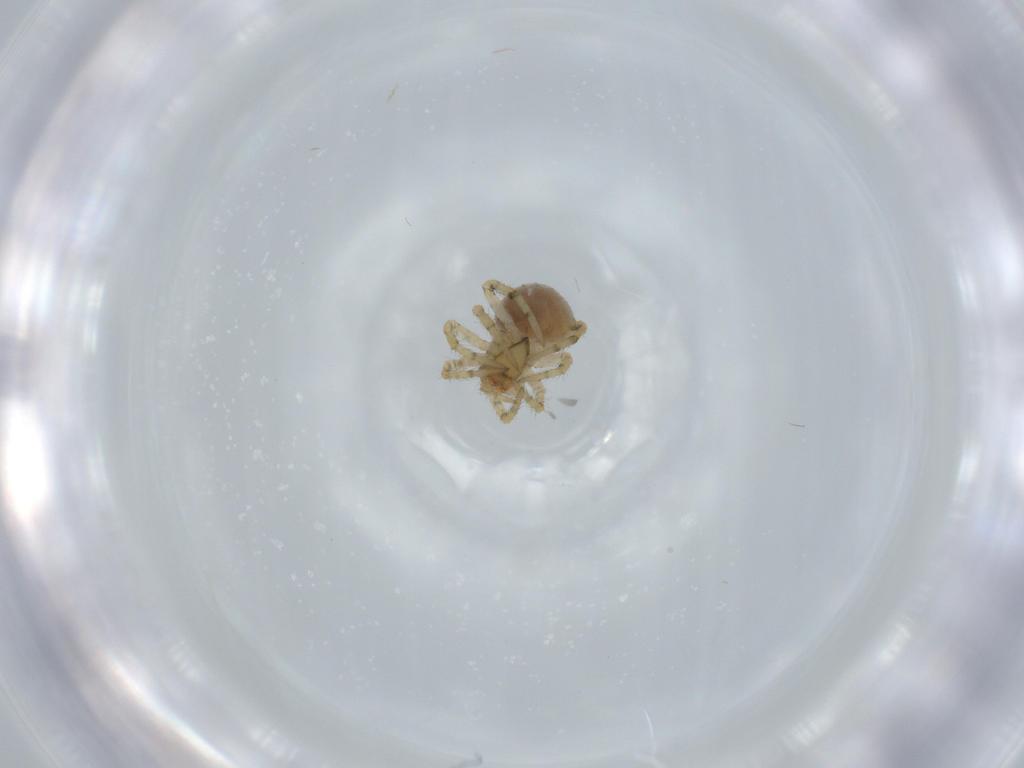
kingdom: Animalia
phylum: Arthropoda
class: Arachnida
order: Araneae
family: Theridiidae
